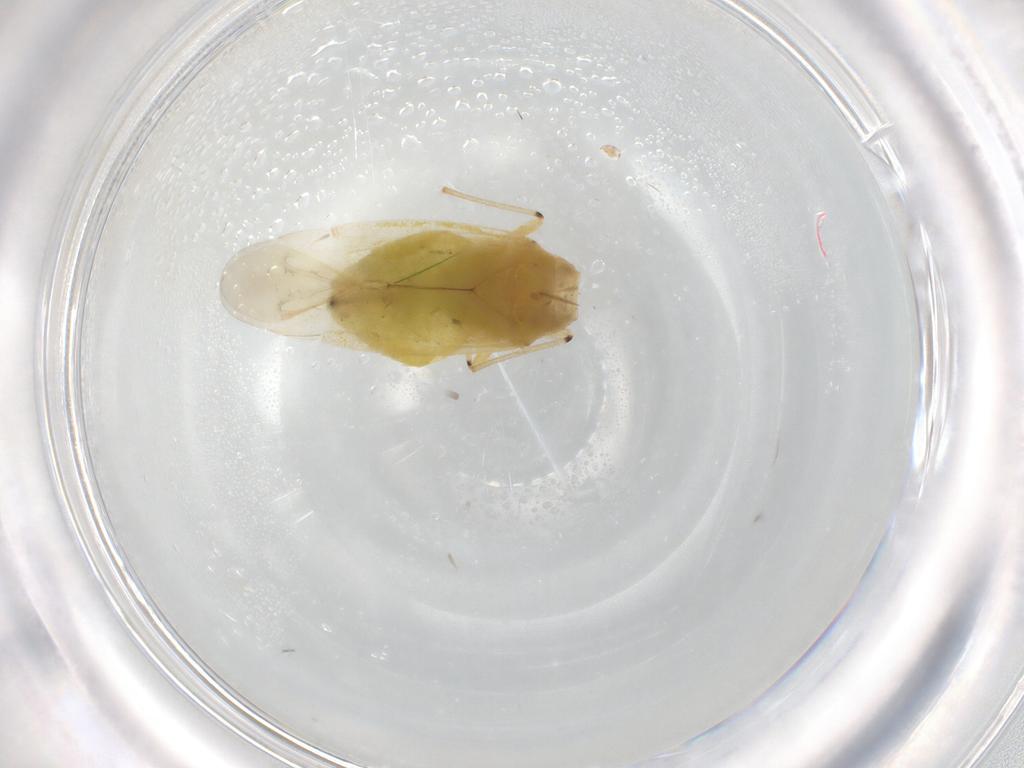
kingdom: Animalia
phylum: Arthropoda
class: Insecta
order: Hemiptera
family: Miridae
